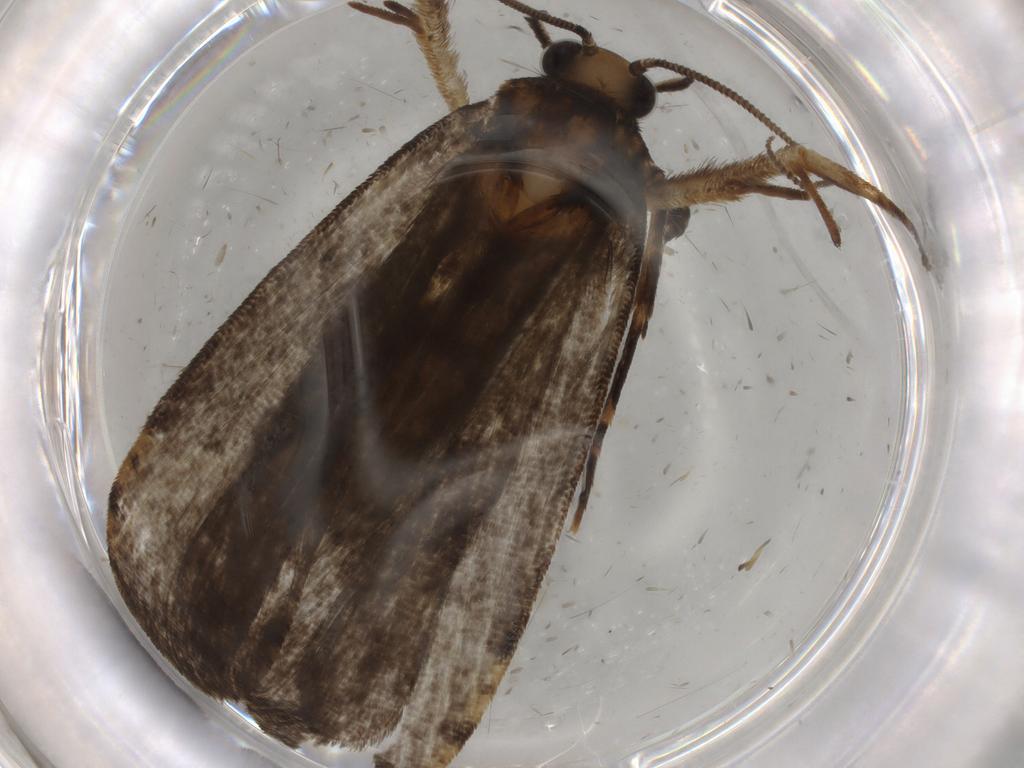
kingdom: Animalia
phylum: Arthropoda
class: Insecta
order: Lepidoptera
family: Tineidae
